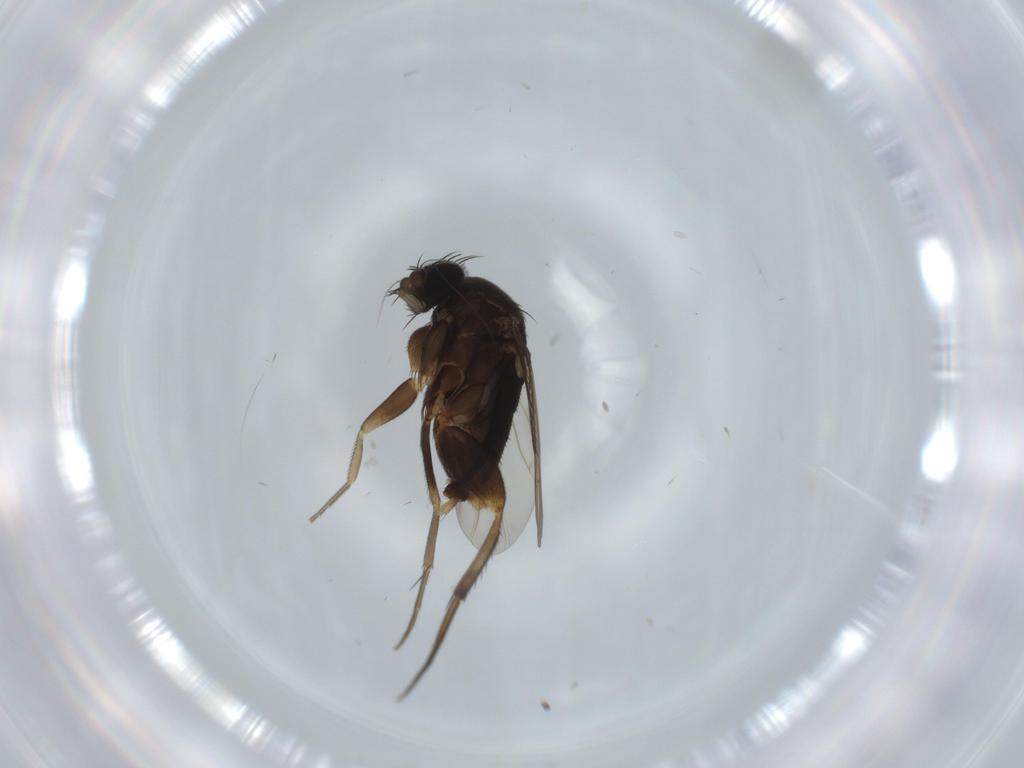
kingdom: Animalia
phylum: Arthropoda
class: Insecta
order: Diptera
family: Phoridae
